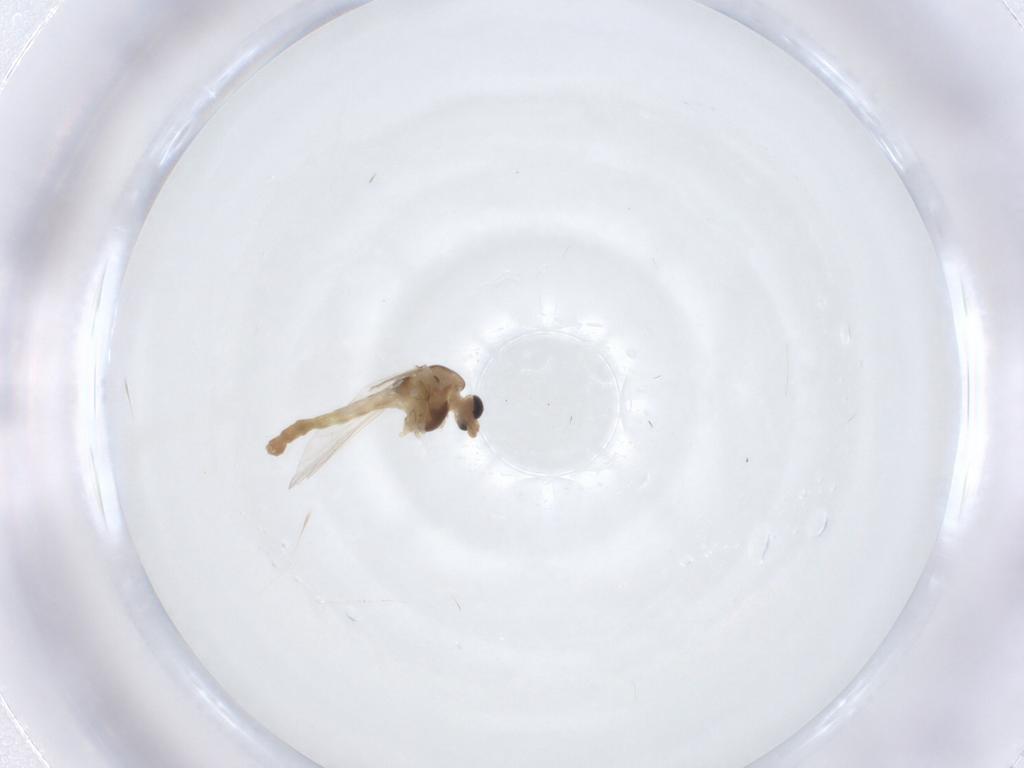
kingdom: Animalia
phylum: Arthropoda
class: Insecta
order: Diptera
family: Chironomidae
